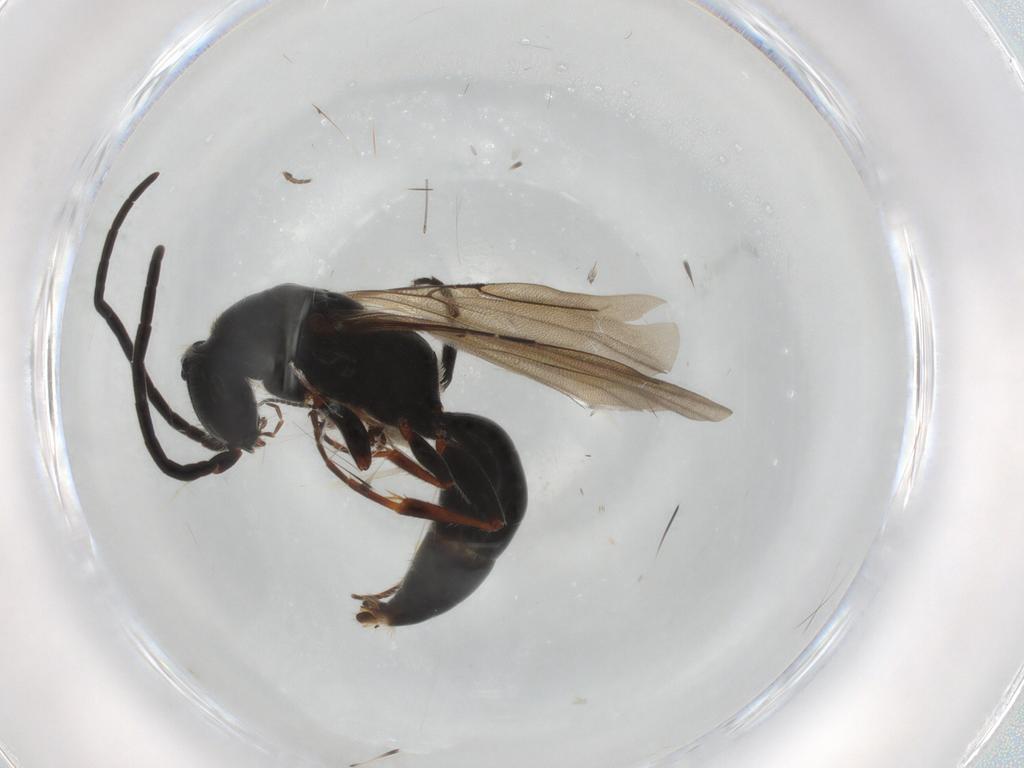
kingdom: Animalia
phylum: Arthropoda
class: Insecta
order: Hymenoptera
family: Bethylidae
